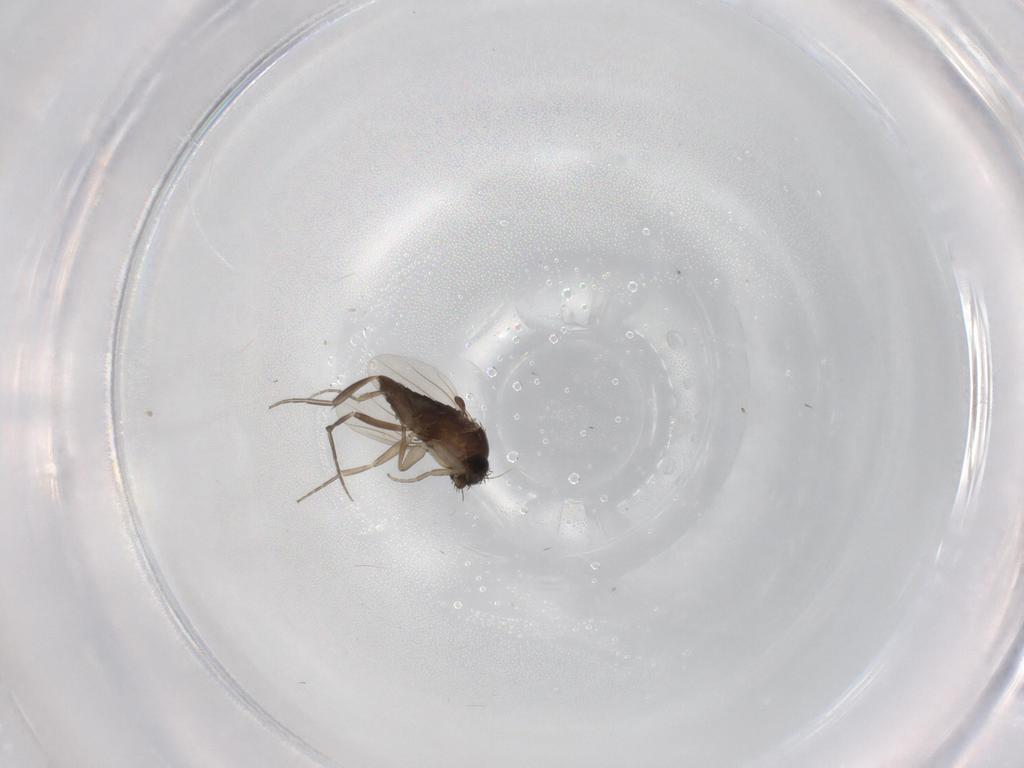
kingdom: Animalia
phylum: Arthropoda
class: Insecta
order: Diptera
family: Phoridae
